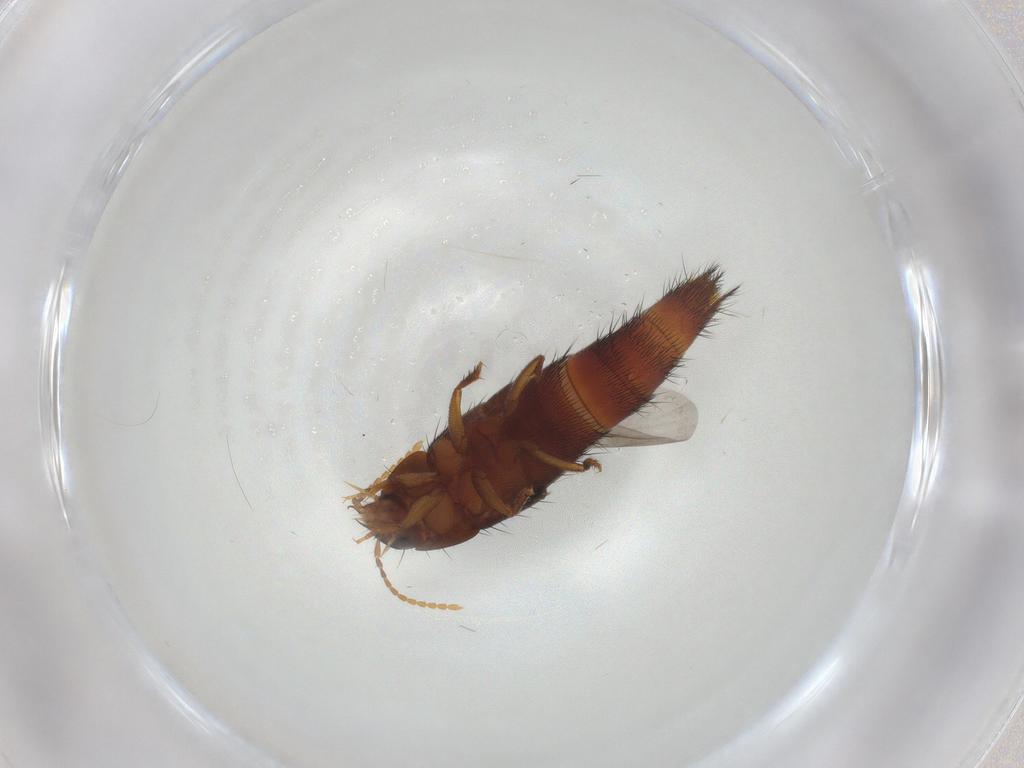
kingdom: Animalia
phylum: Arthropoda
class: Insecta
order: Coleoptera
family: Staphylinidae
